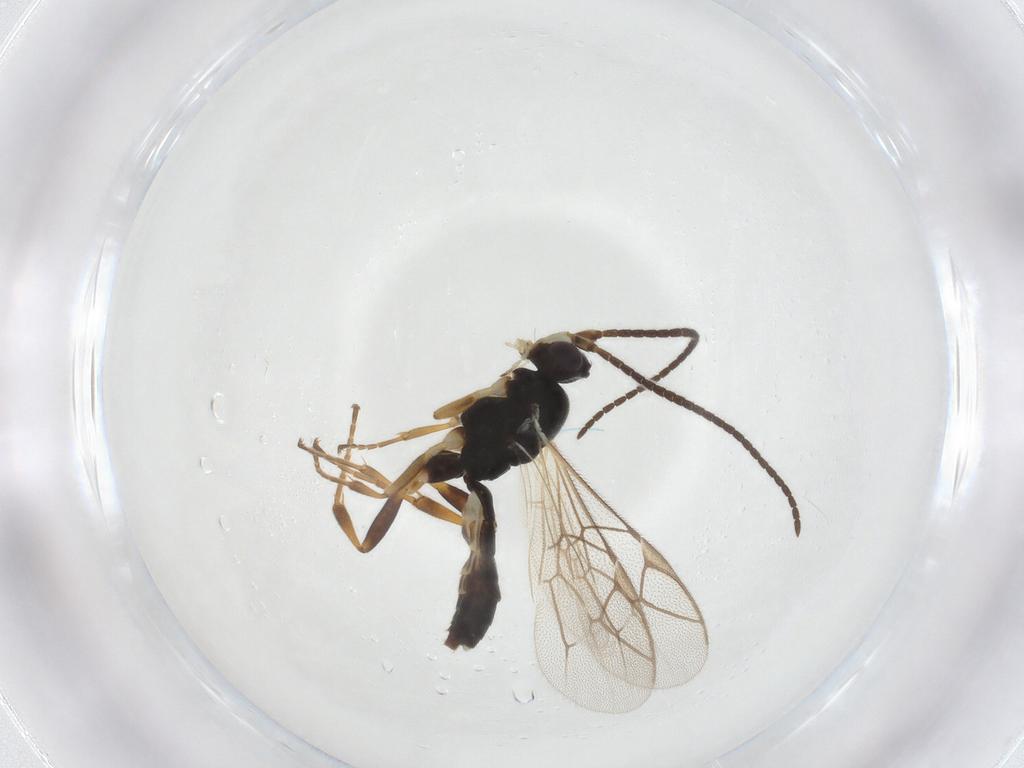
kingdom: Animalia
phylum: Arthropoda
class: Insecta
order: Hymenoptera
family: Ichneumonidae
